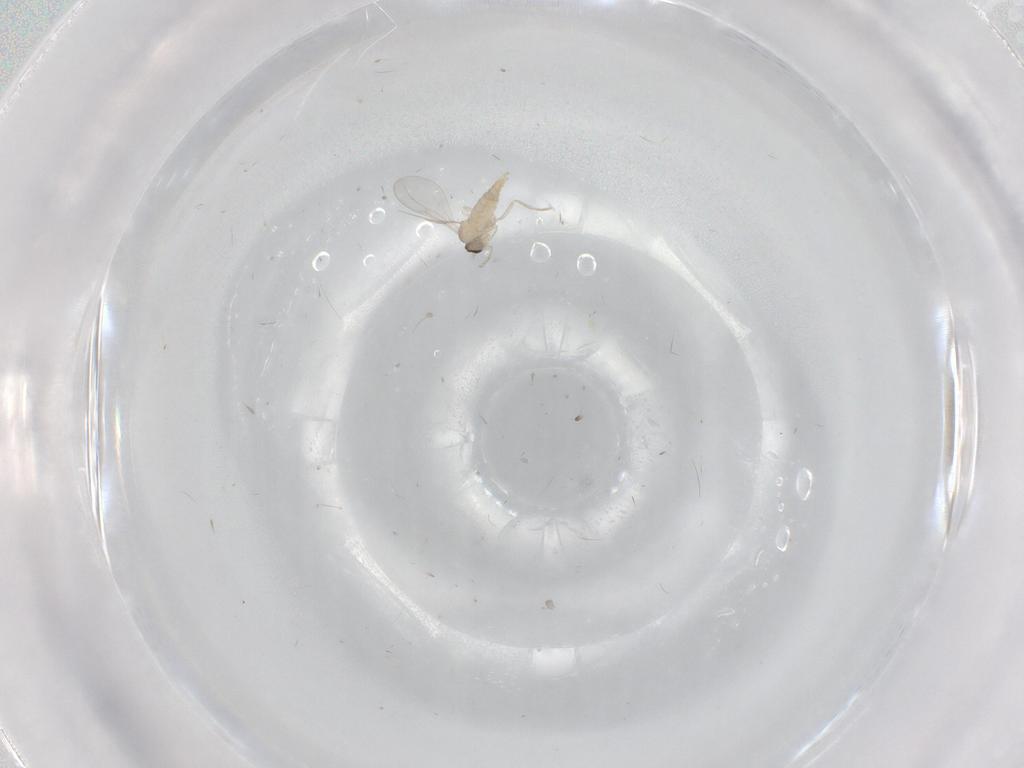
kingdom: Animalia
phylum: Arthropoda
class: Insecta
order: Diptera
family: Cecidomyiidae
